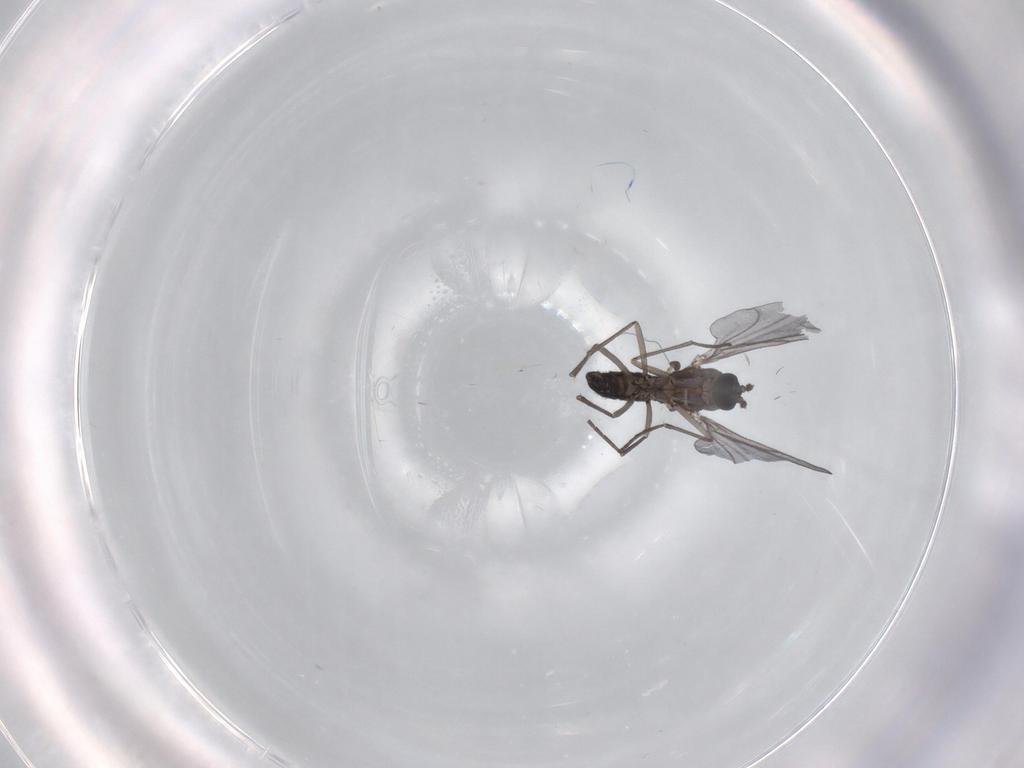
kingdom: Animalia
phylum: Arthropoda
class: Insecta
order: Diptera
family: Sciaridae
